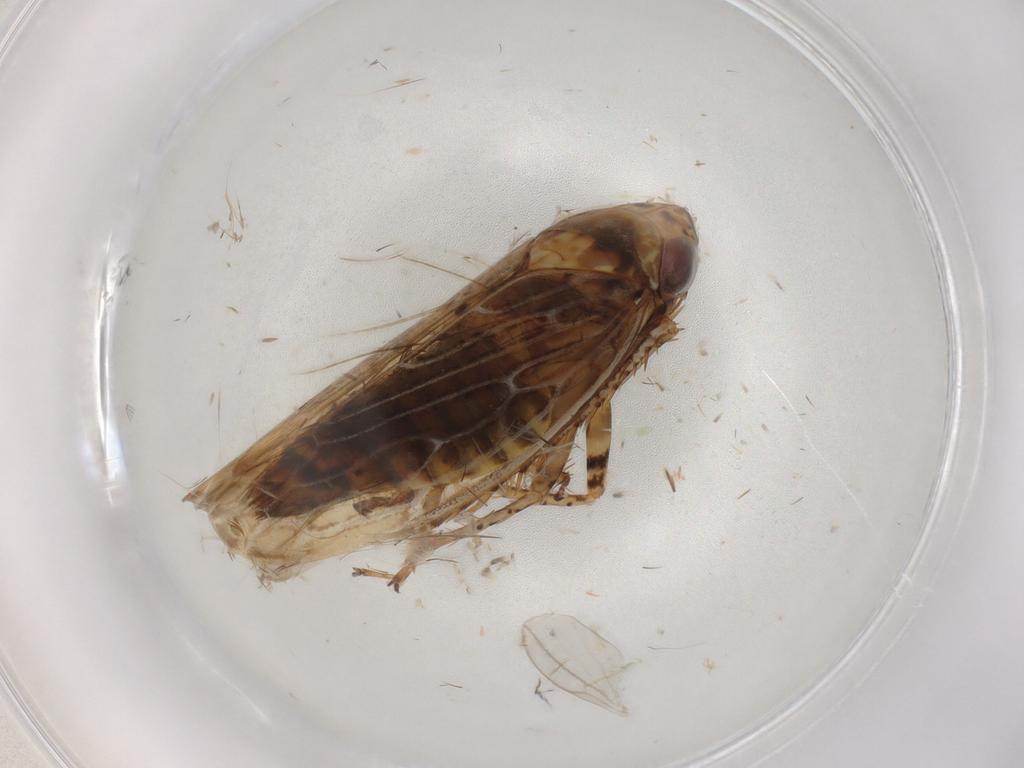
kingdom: Animalia
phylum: Arthropoda
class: Insecta
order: Hemiptera
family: Cicadellidae
